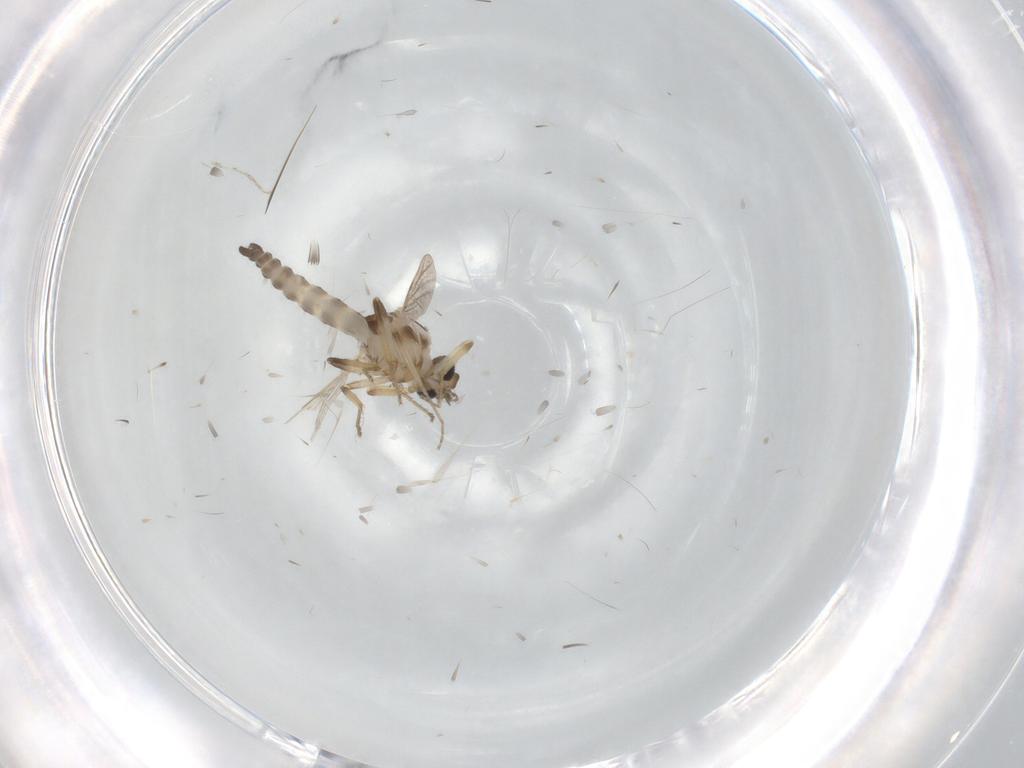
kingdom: Animalia
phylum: Arthropoda
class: Insecta
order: Diptera
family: Ceratopogonidae
